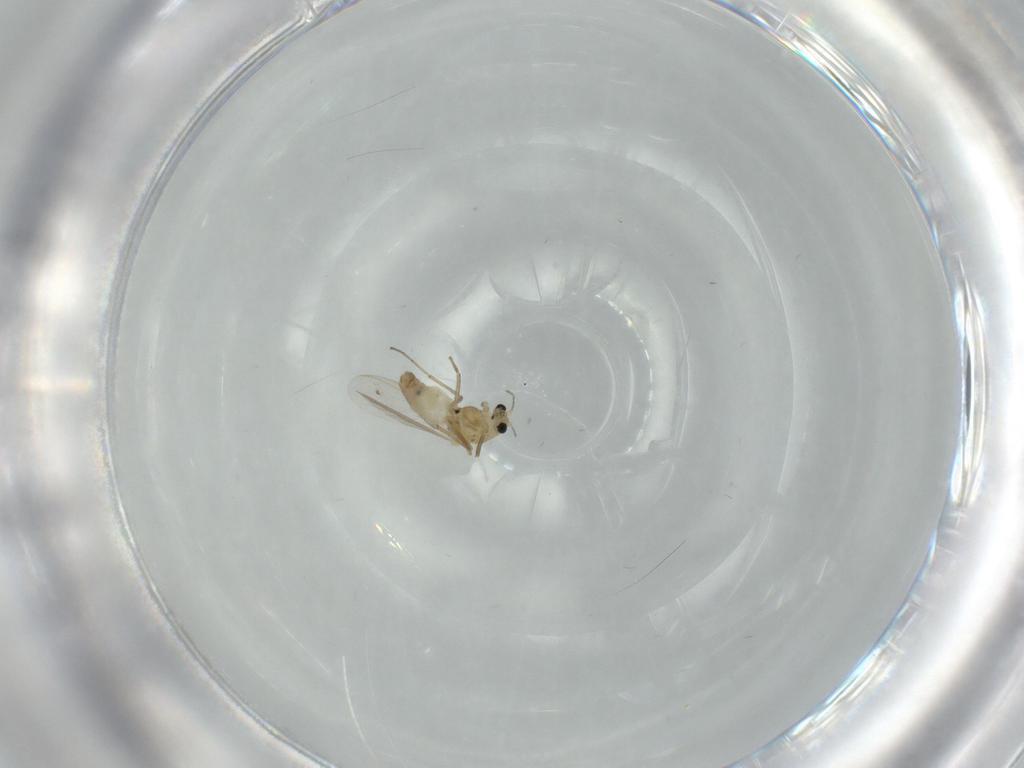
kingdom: Animalia
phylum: Arthropoda
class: Insecta
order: Diptera
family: Chironomidae
